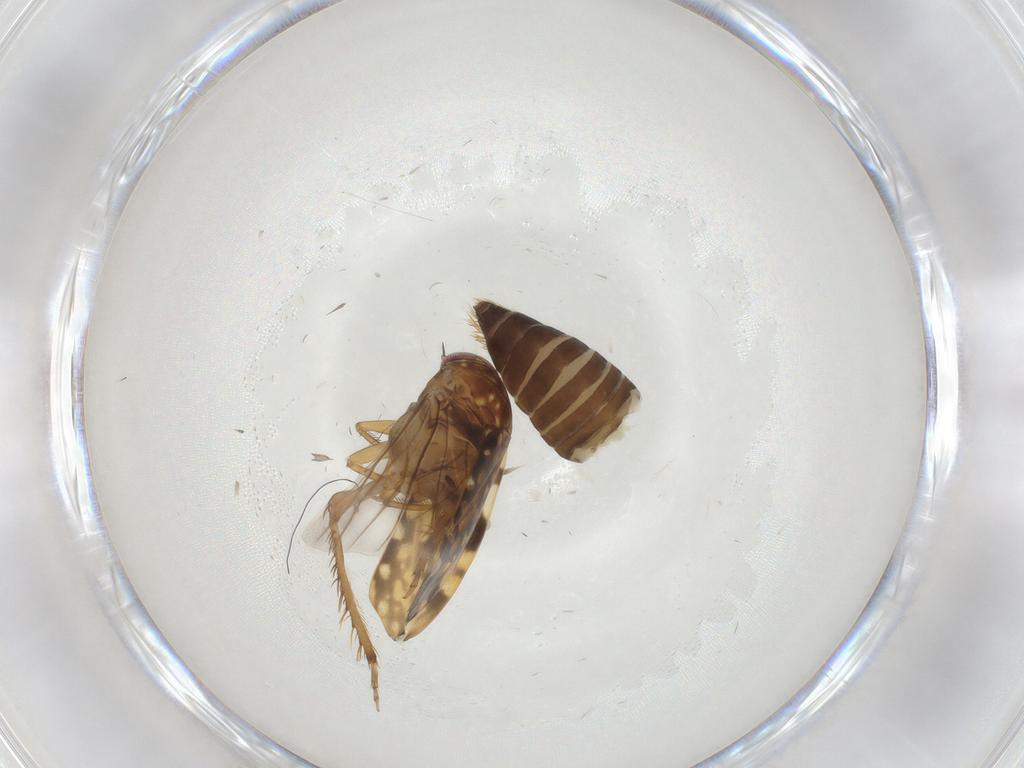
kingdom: Animalia
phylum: Arthropoda
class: Insecta
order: Hemiptera
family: Cicadellidae
